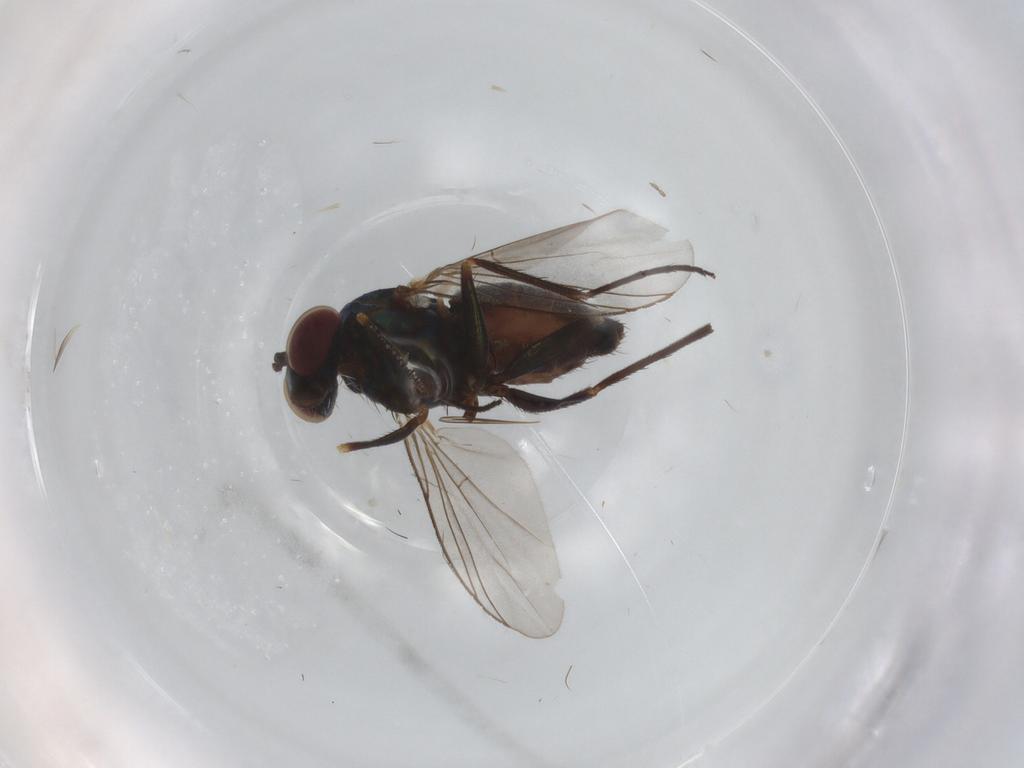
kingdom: Animalia
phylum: Arthropoda
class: Insecta
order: Diptera
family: Dolichopodidae
